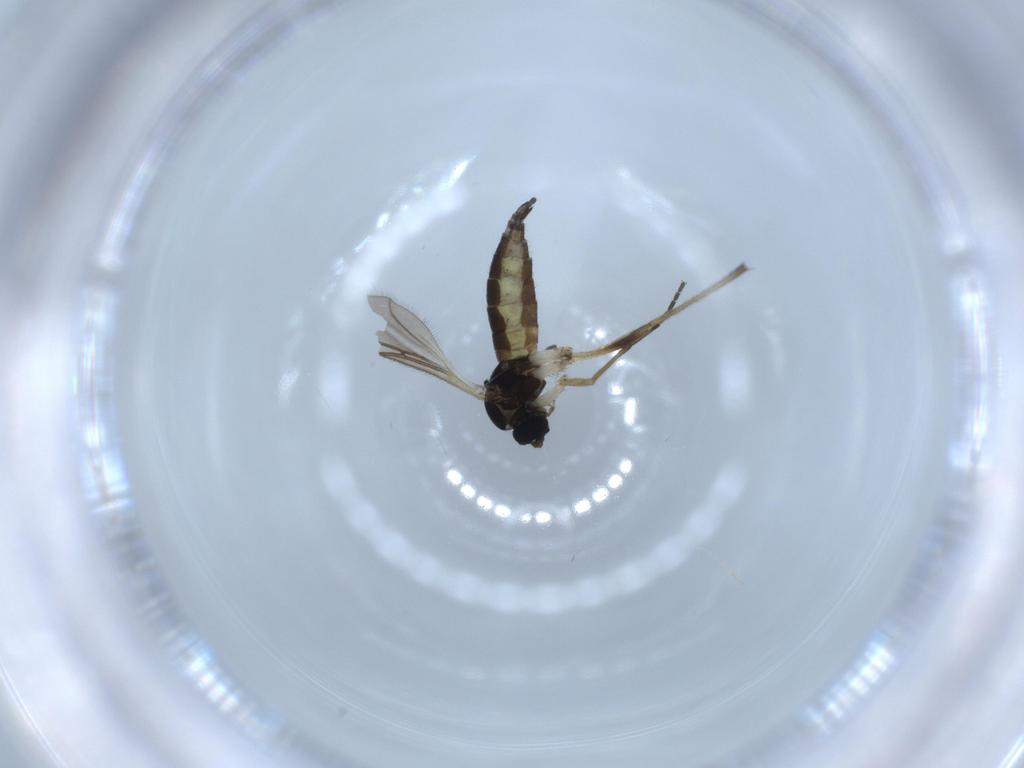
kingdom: Animalia
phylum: Arthropoda
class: Insecta
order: Diptera
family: Sciaridae
